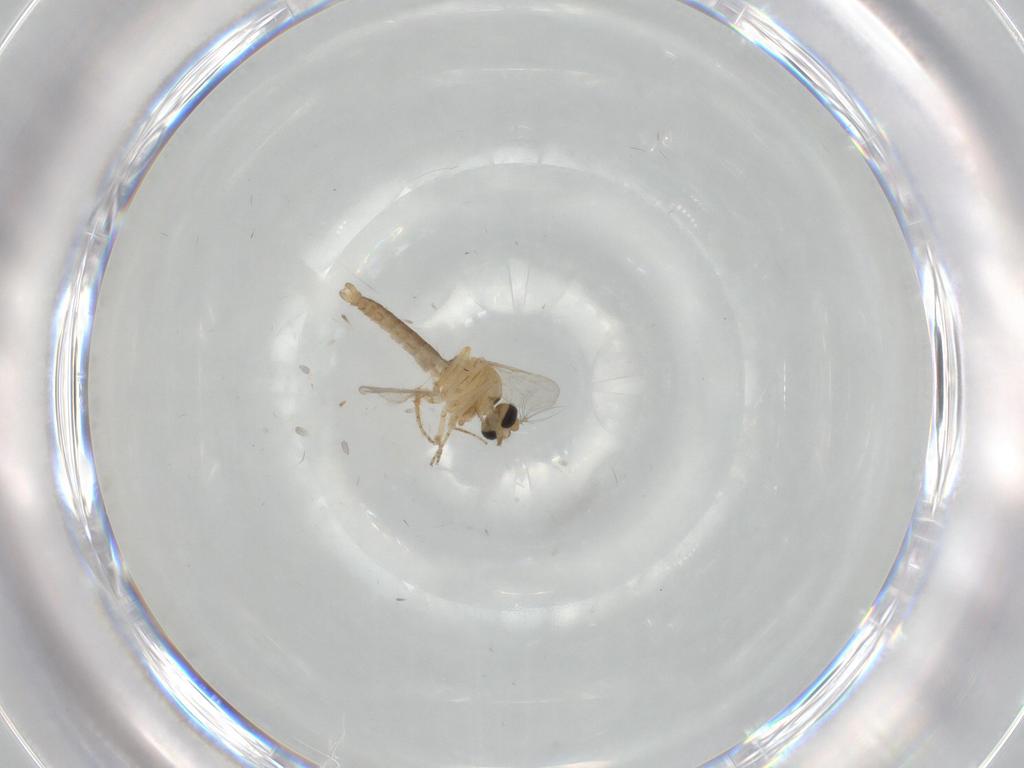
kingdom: Animalia
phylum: Arthropoda
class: Insecta
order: Diptera
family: Ceratopogonidae
